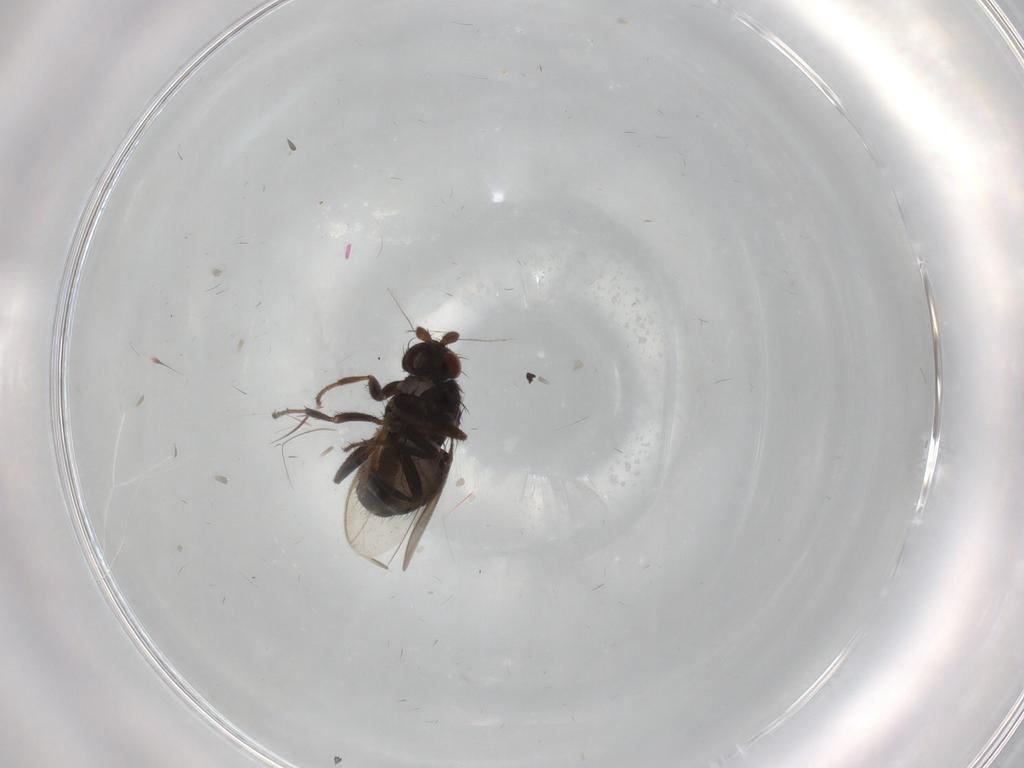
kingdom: Animalia
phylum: Arthropoda
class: Insecta
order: Diptera
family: Sphaeroceridae
